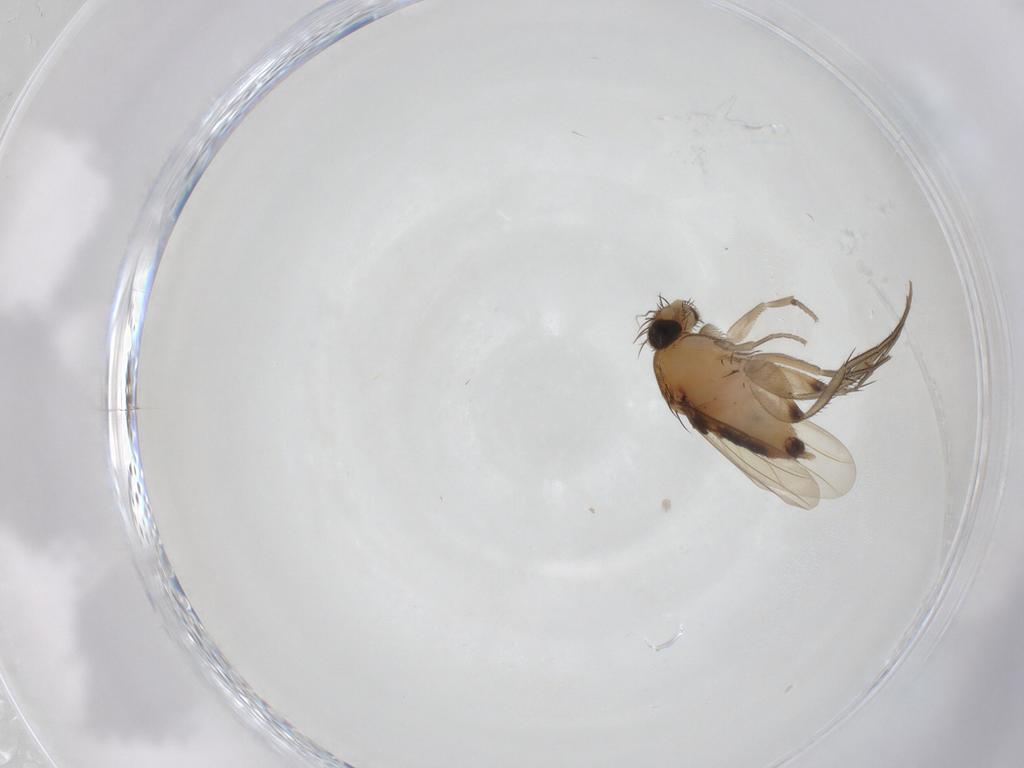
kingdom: Animalia
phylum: Arthropoda
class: Insecta
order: Diptera
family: Phoridae
